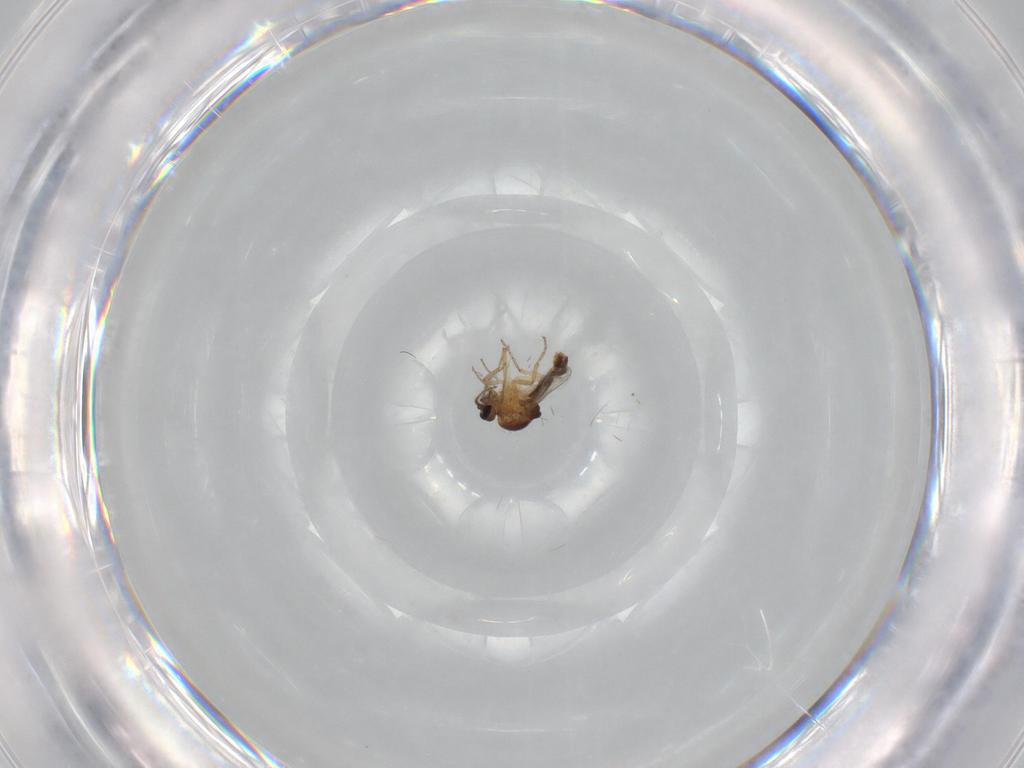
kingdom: Animalia
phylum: Arthropoda
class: Insecta
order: Diptera
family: Ceratopogonidae
